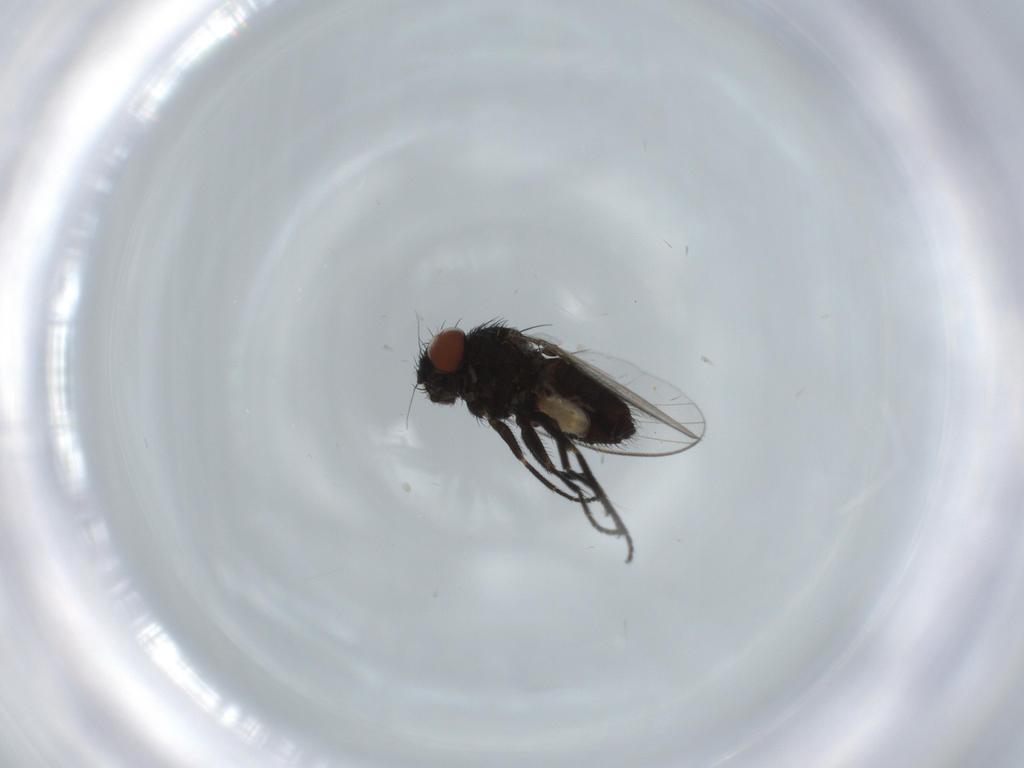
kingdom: Animalia
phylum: Arthropoda
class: Insecta
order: Diptera
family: Milichiidae
